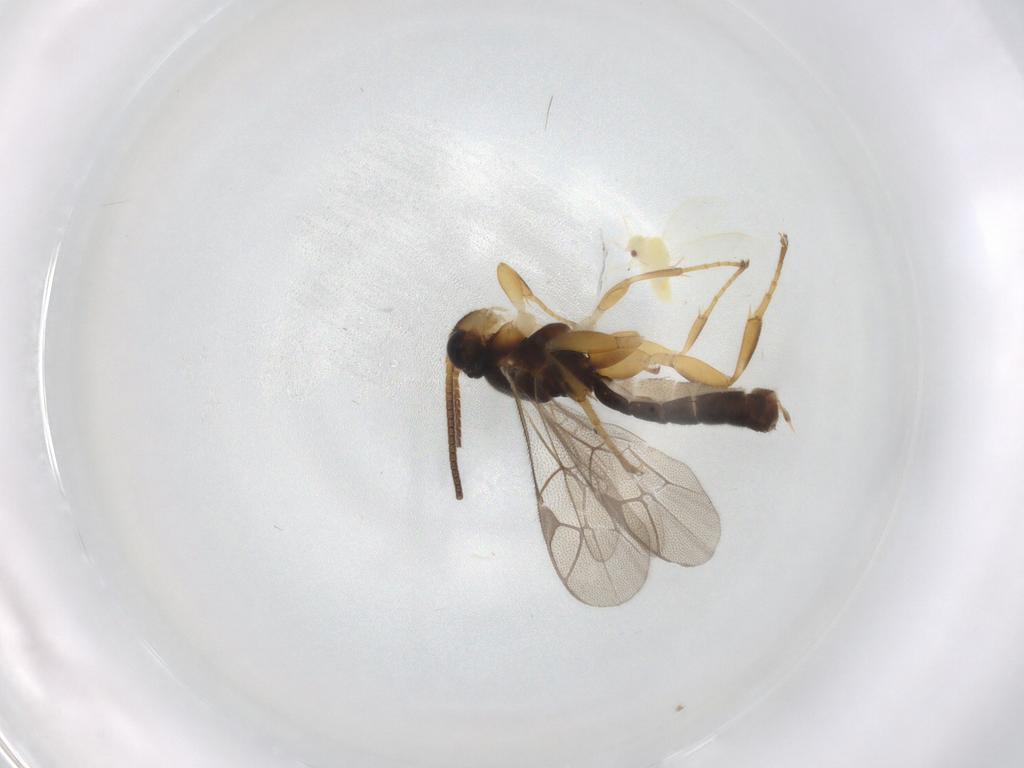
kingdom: Animalia
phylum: Arthropoda
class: Insecta
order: Hymenoptera
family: Ichneumonidae
